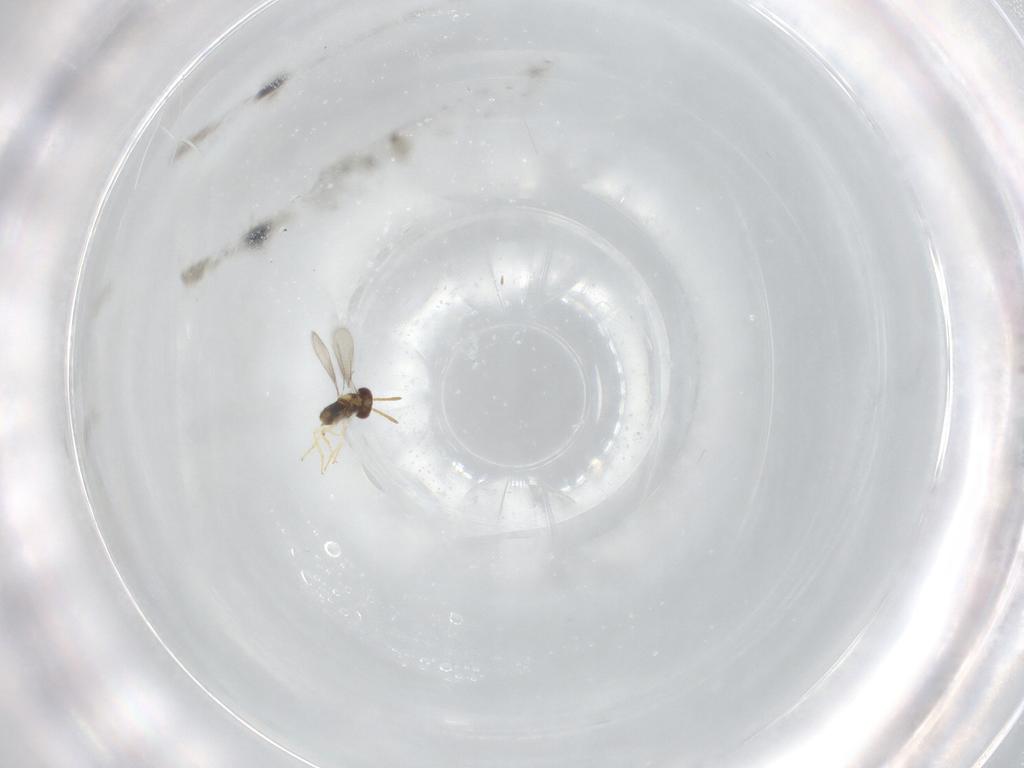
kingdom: Animalia
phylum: Arthropoda
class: Insecta
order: Hymenoptera
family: Aphelinidae
